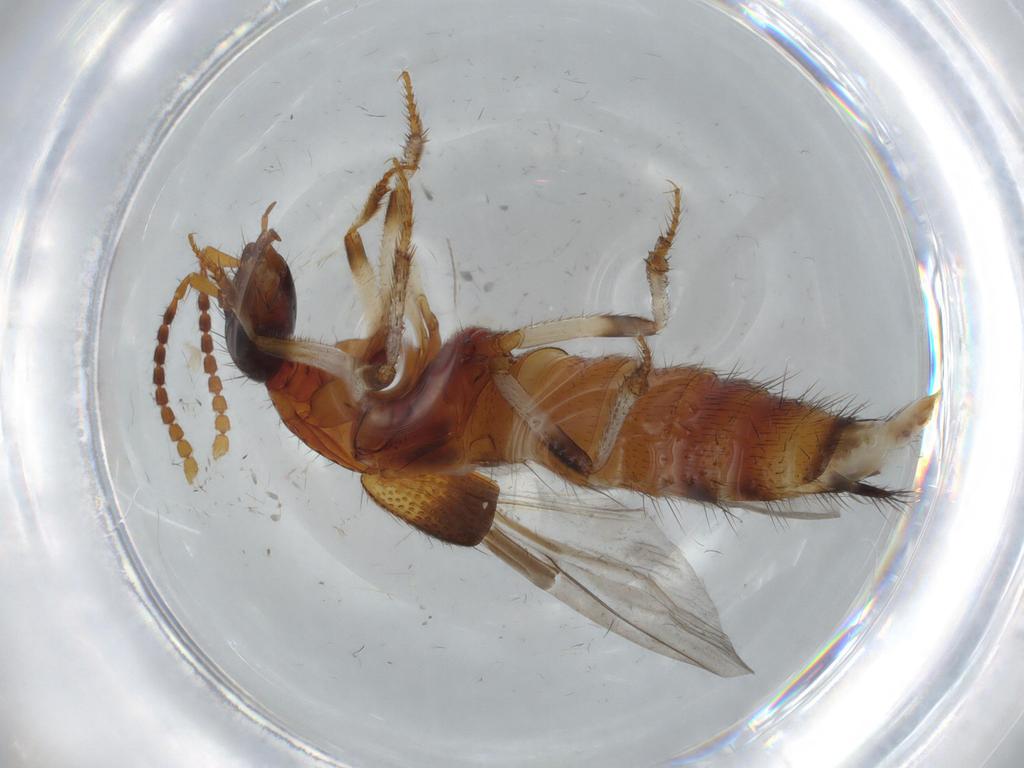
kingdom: Animalia
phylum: Arthropoda
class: Insecta
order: Coleoptera
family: Staphylinidae
